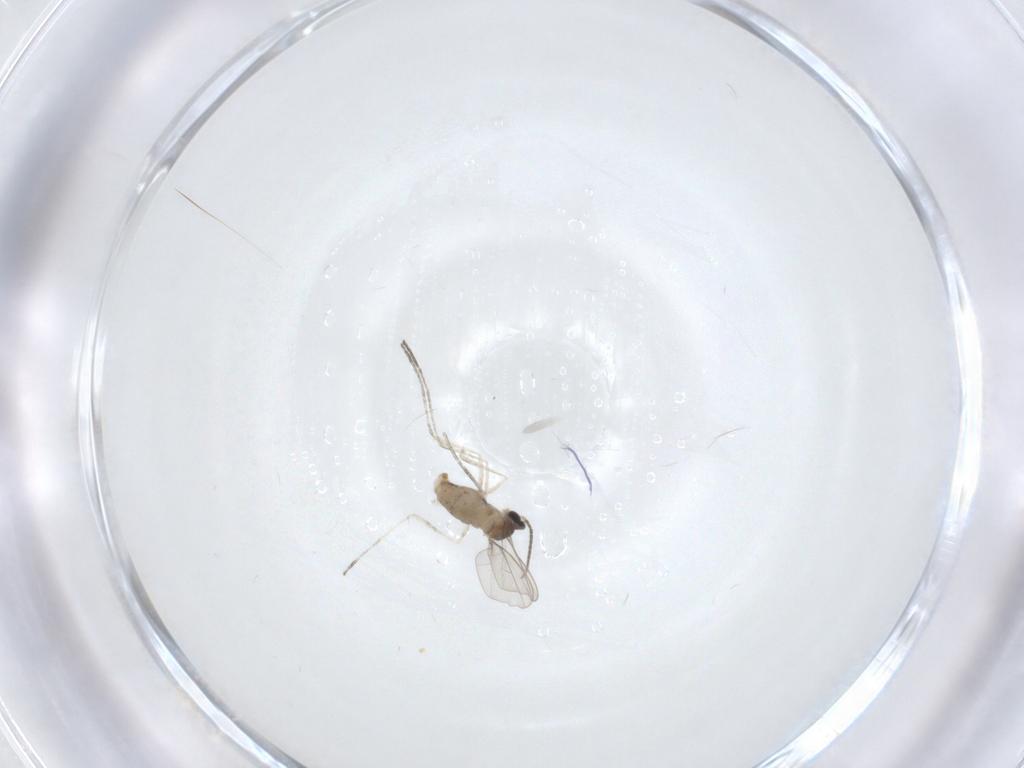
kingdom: Animalia
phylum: Arthropoda
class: Insecta
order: Diptera
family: Cecidomyiidae
